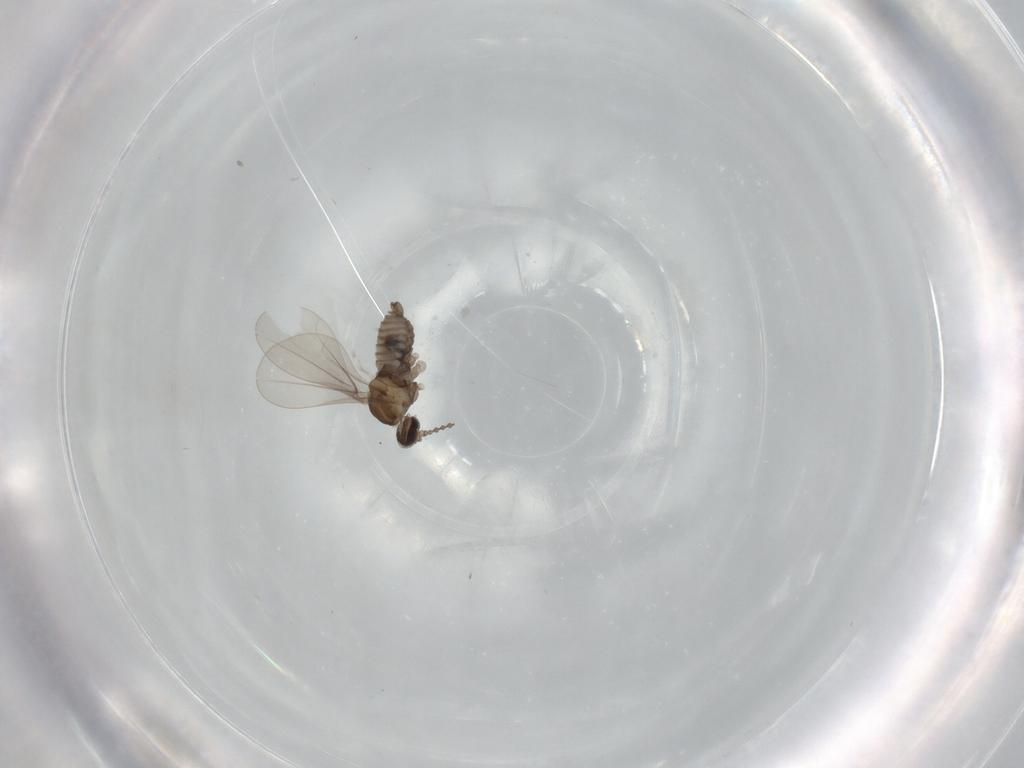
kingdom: Animalia
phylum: Arthropoda
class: Insecta
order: Diptera
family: Cecidomyiidae
